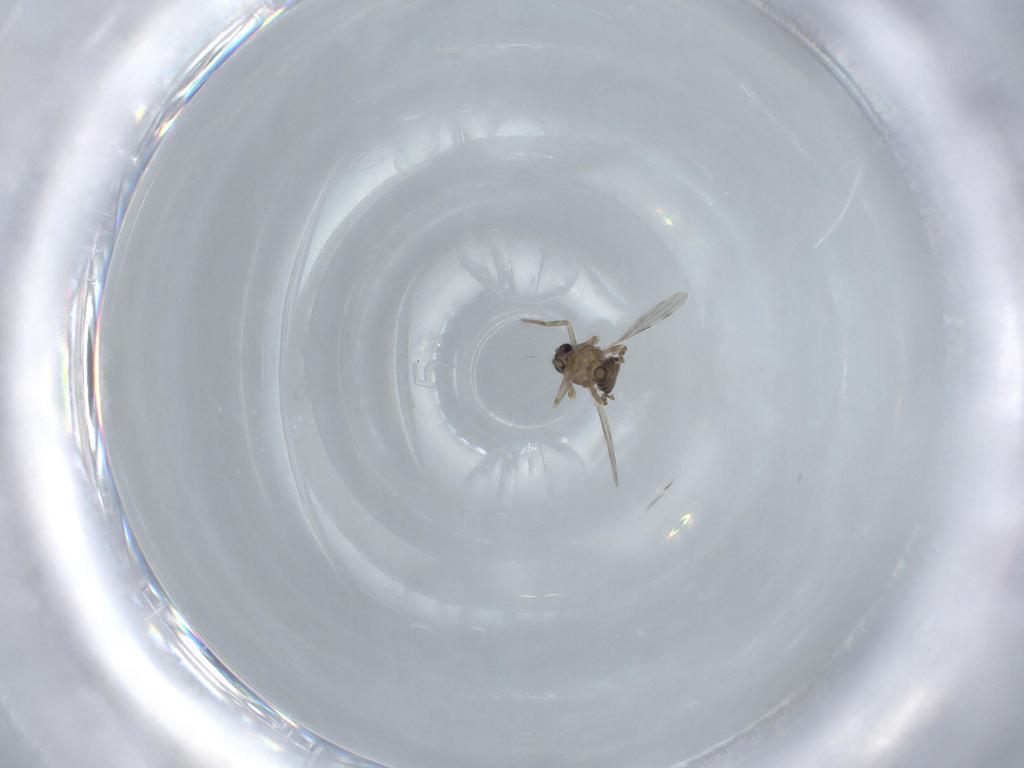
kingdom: Animalia
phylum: Arthropoda
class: Insecta
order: Diptera
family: Ceratopogonidae
